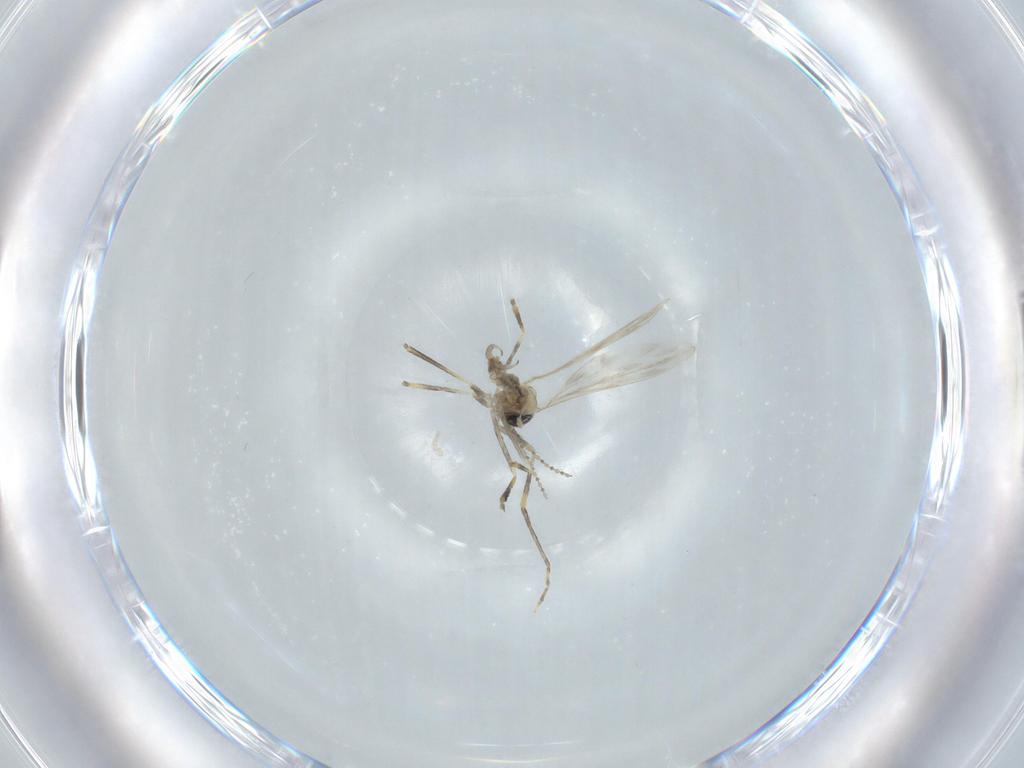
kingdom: Animalia
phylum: Arthropoda
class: Insecta
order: Diptera
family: Cecidomyiidae
